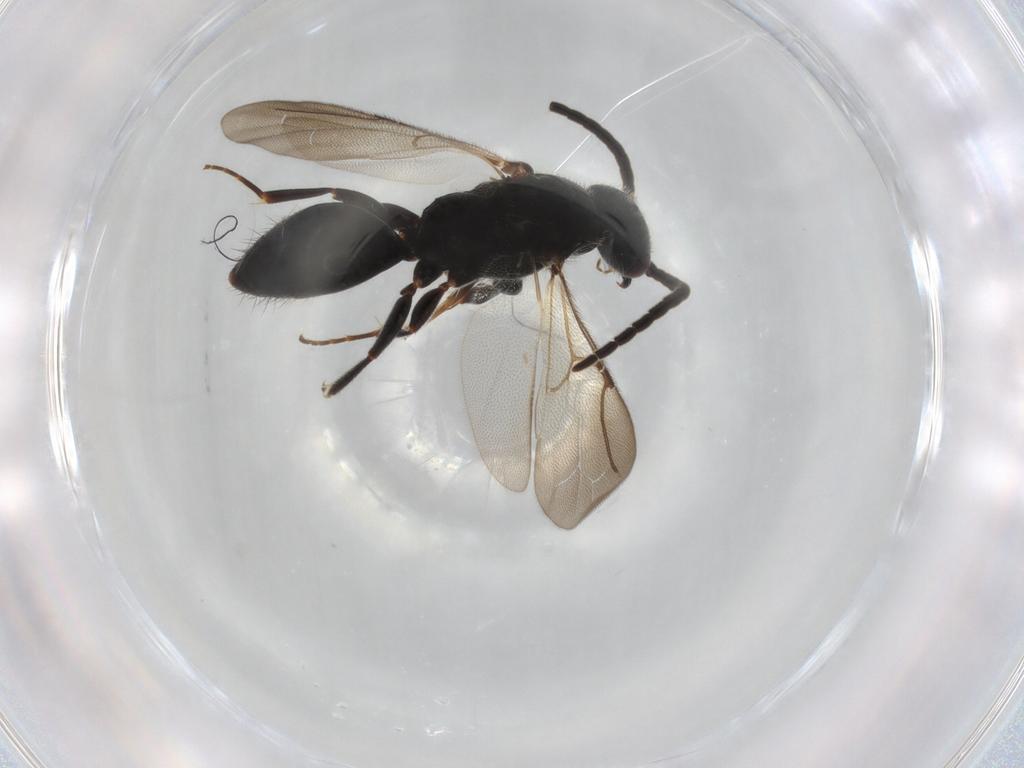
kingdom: Animalia
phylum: Arthropoda
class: Insecta
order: Hymenoptera
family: Bethylidae
